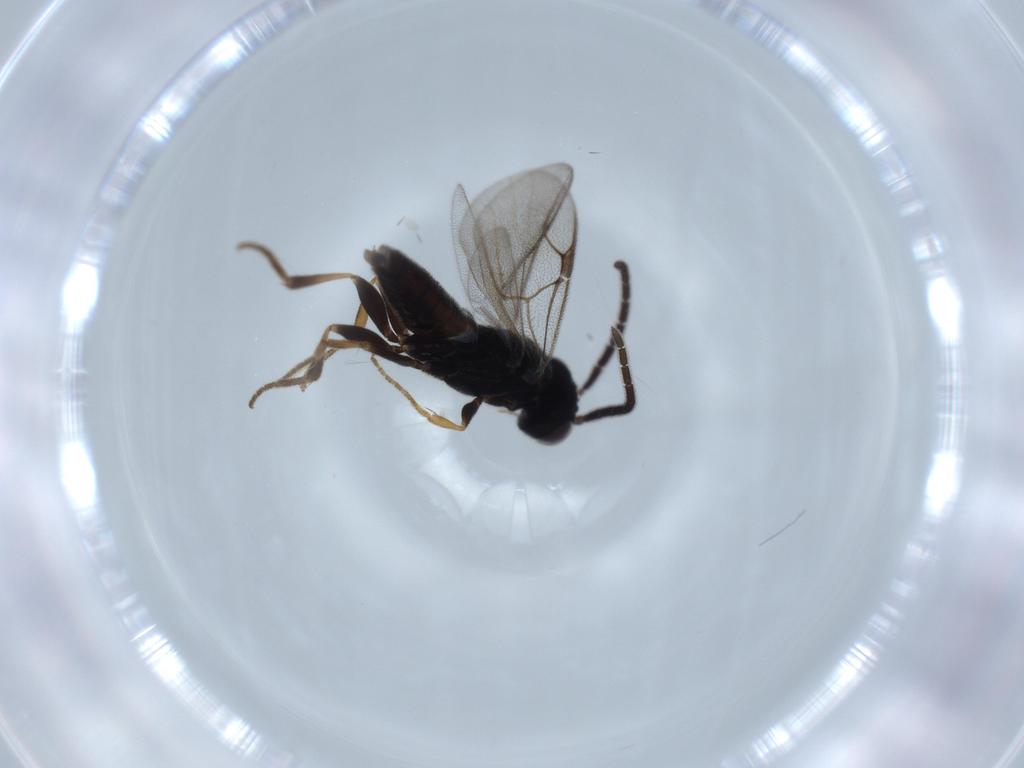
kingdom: Animalia
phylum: Arthropoda
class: Insecta
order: Hymenoptera
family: Dryinidae
